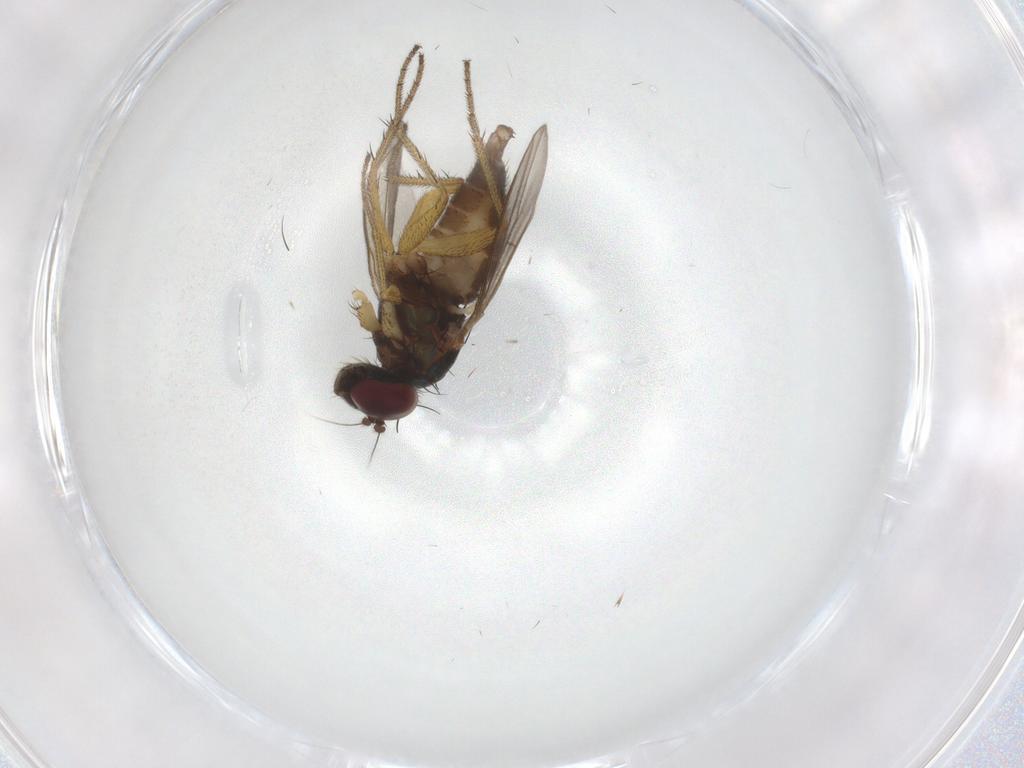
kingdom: Animalia
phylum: Arthropoda
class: Insecta
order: Diptera
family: Dolichopodidae
